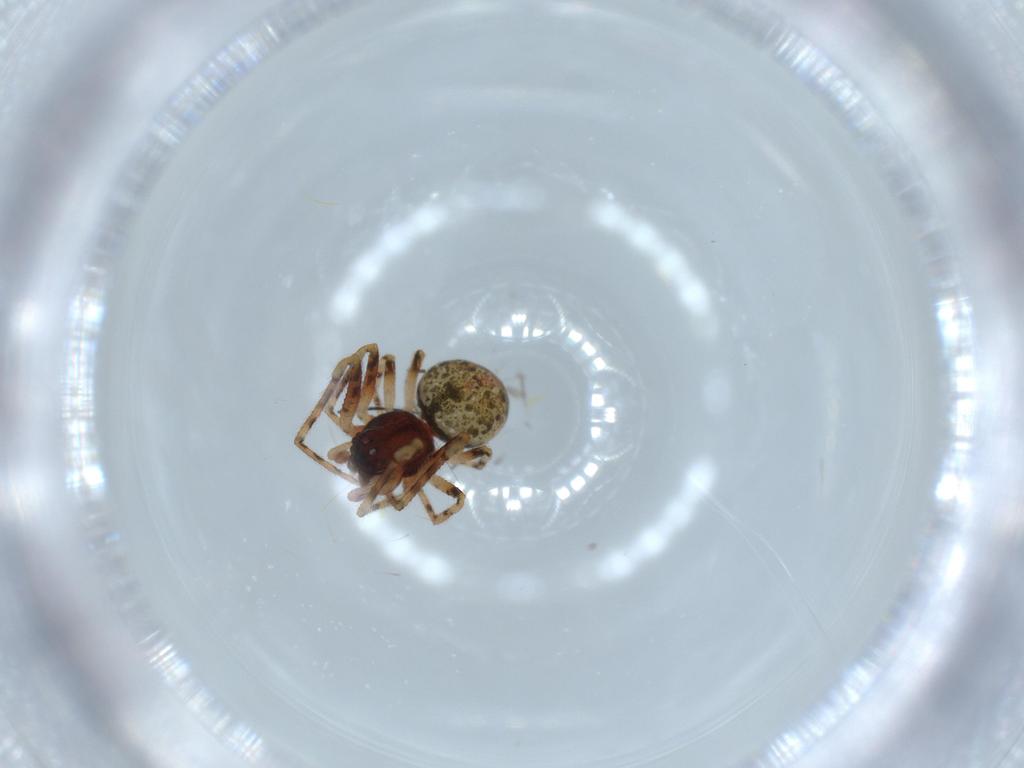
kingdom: Animalia
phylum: Arthropoda
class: Arachnida
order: Araneae
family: Theridiidae
